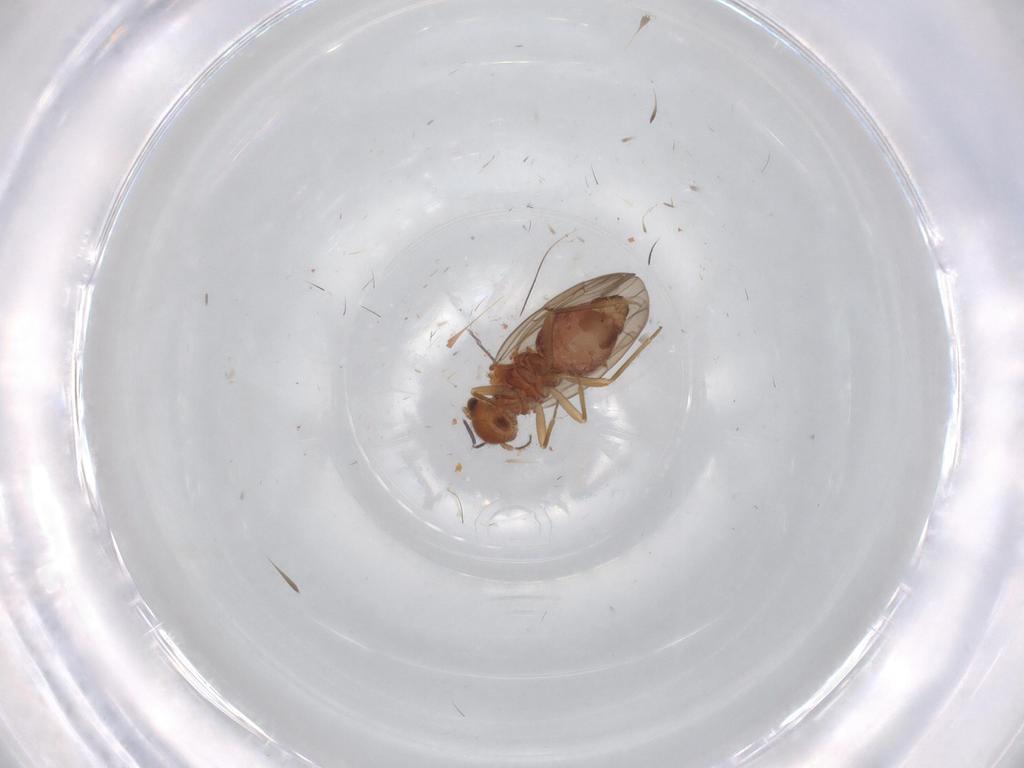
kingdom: Animalia
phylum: Arthropoda
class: Insecta
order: Psocodea
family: Ectopsocidae
